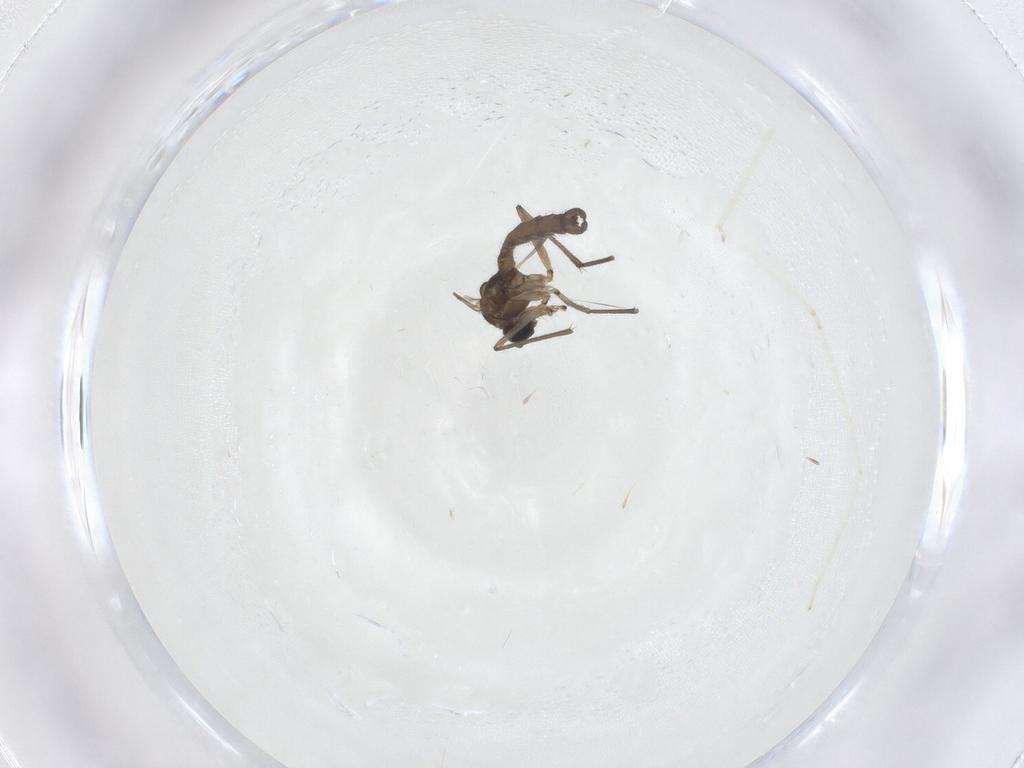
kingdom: Animalia
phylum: Arthropoda
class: Insecta
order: Diptera
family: Sciaridae
